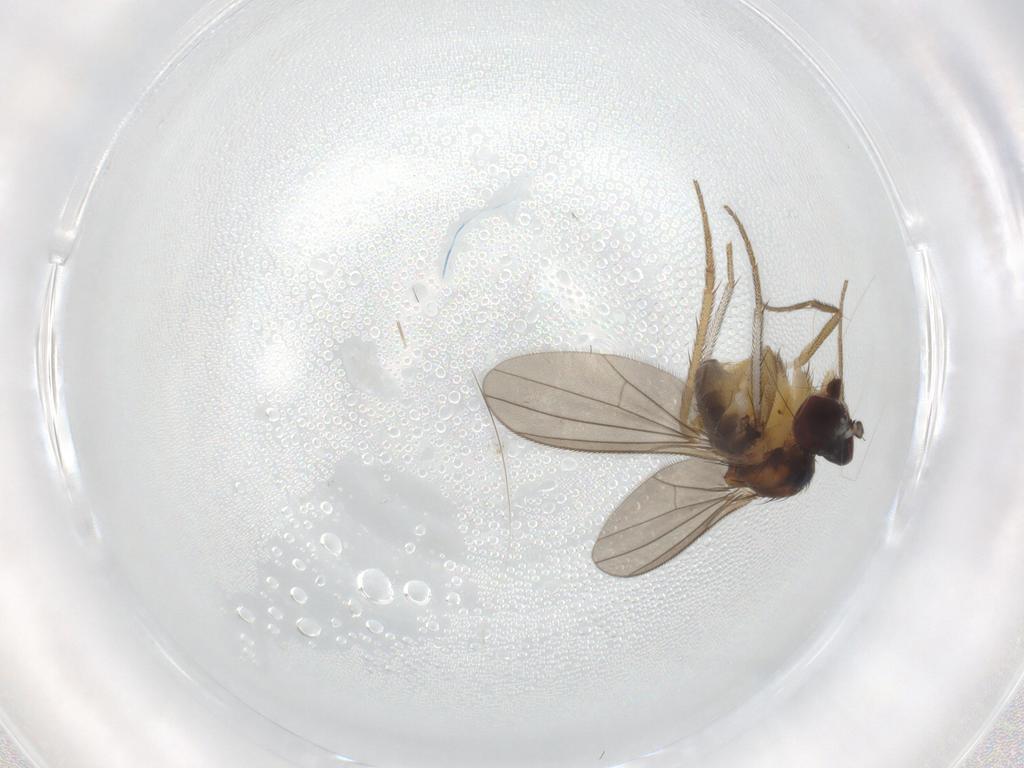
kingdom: Animalia
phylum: Arthropoda
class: Insecta
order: Diptera
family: Dolichopodidae
